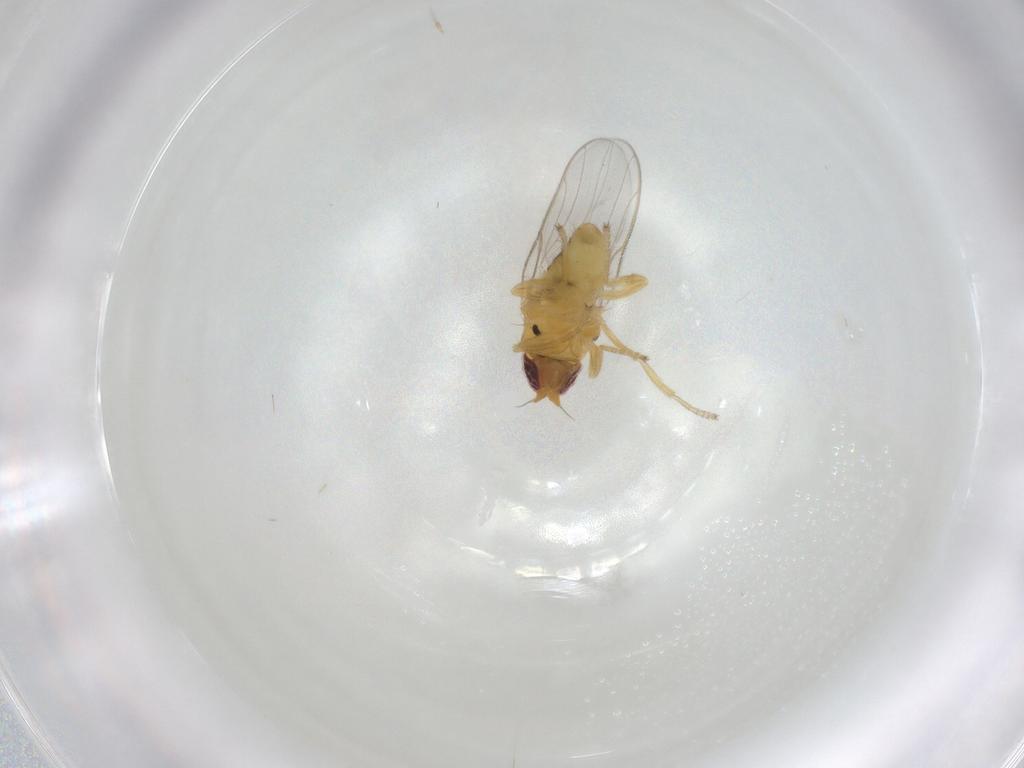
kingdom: Animalia
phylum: Arthropoda
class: Insecta
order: Diptera
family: Chloropidae
